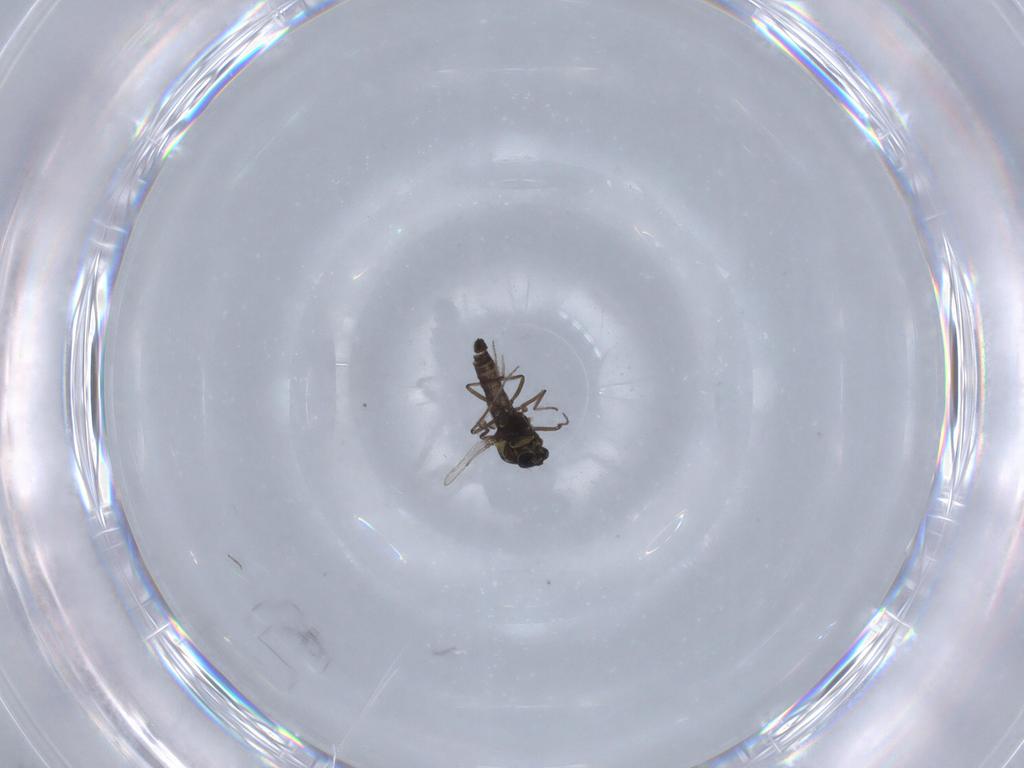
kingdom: Animalia
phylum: Arthropoda
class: Insecta
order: Diptera
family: Ceratopogonidae
